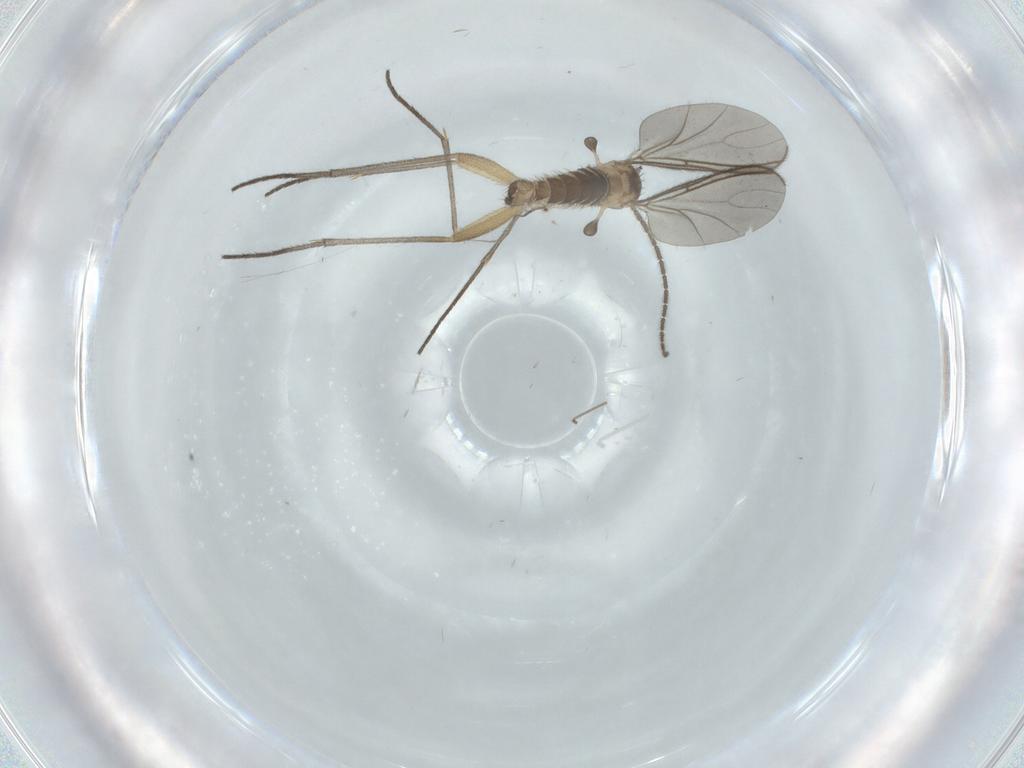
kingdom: Animalia
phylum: Arthropoda
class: Insecta
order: Diptera
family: Sciaridae
